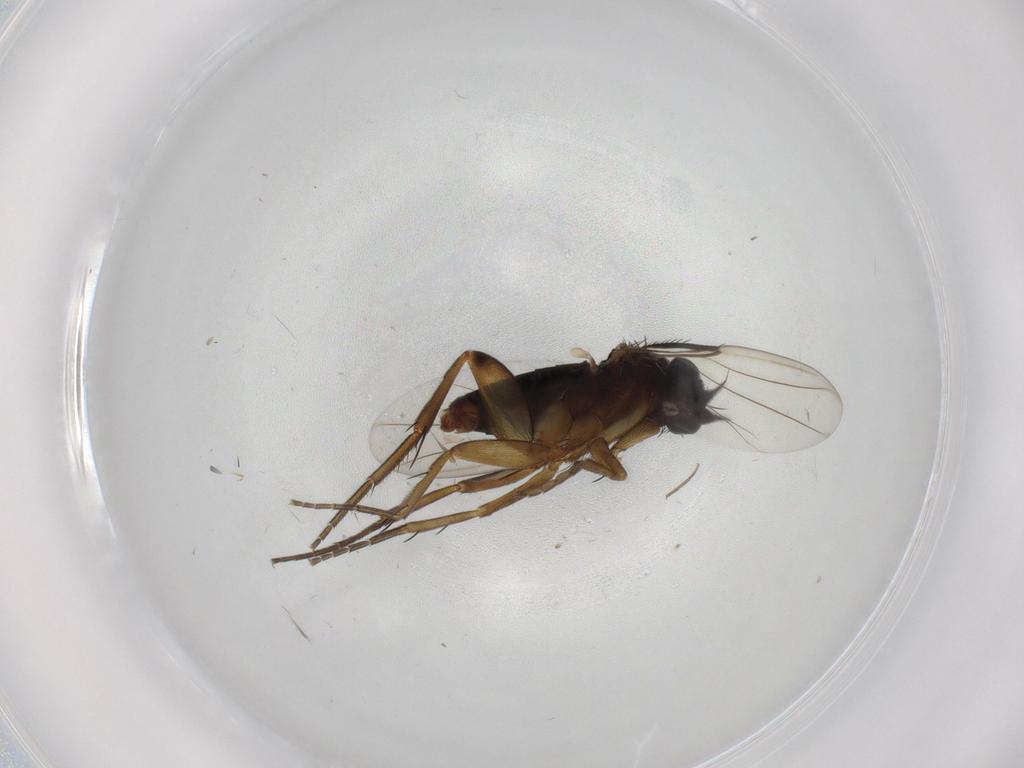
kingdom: Animalia
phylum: Arthropoda
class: Insecta
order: Diptera
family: Phoridae
